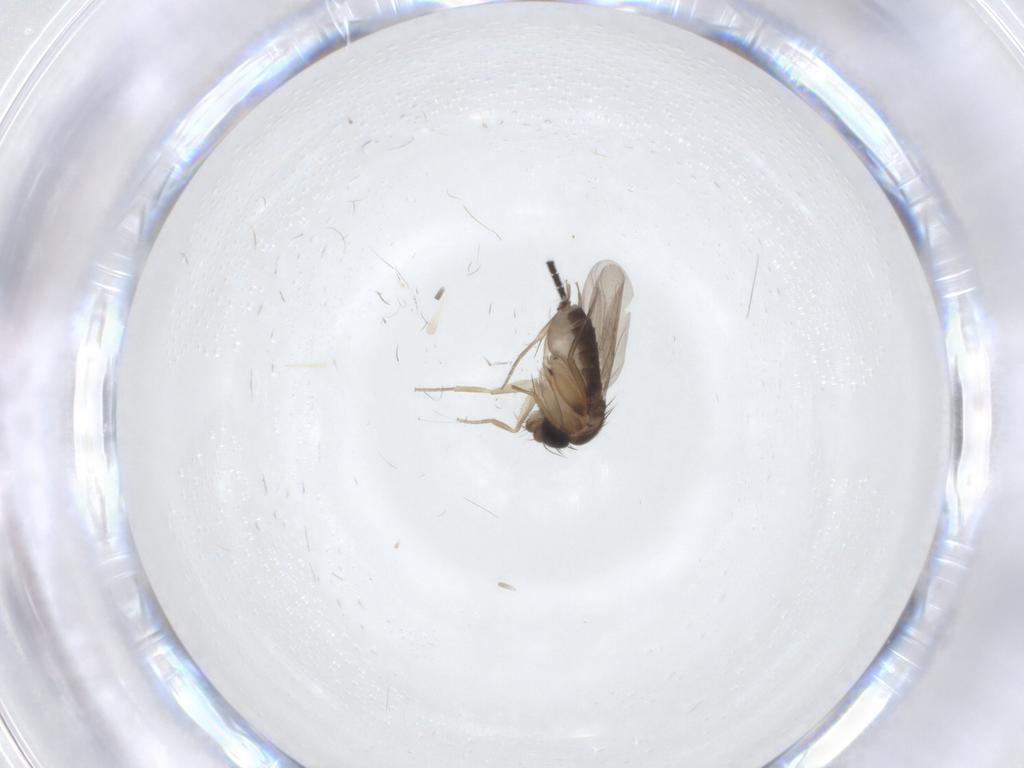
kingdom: Animalia
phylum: Arthropoda
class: Insecta
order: Diptera
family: Phoridae
